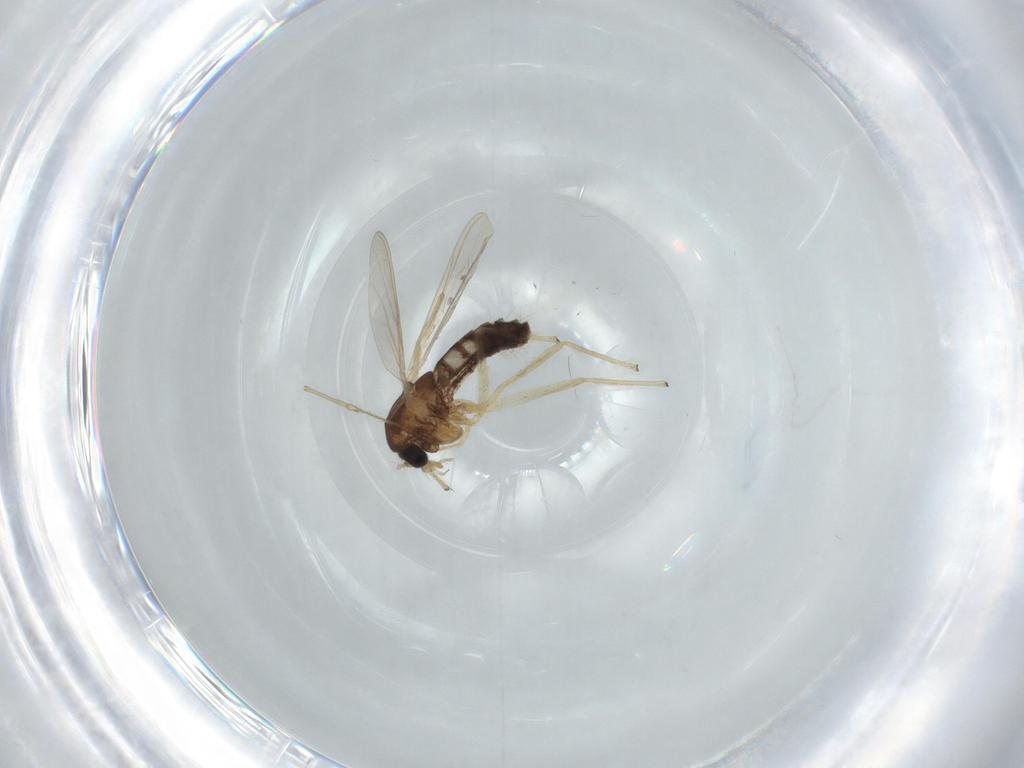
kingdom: Animalia
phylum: Arthropoda
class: Insecta
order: Diptera
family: Chironomidae
